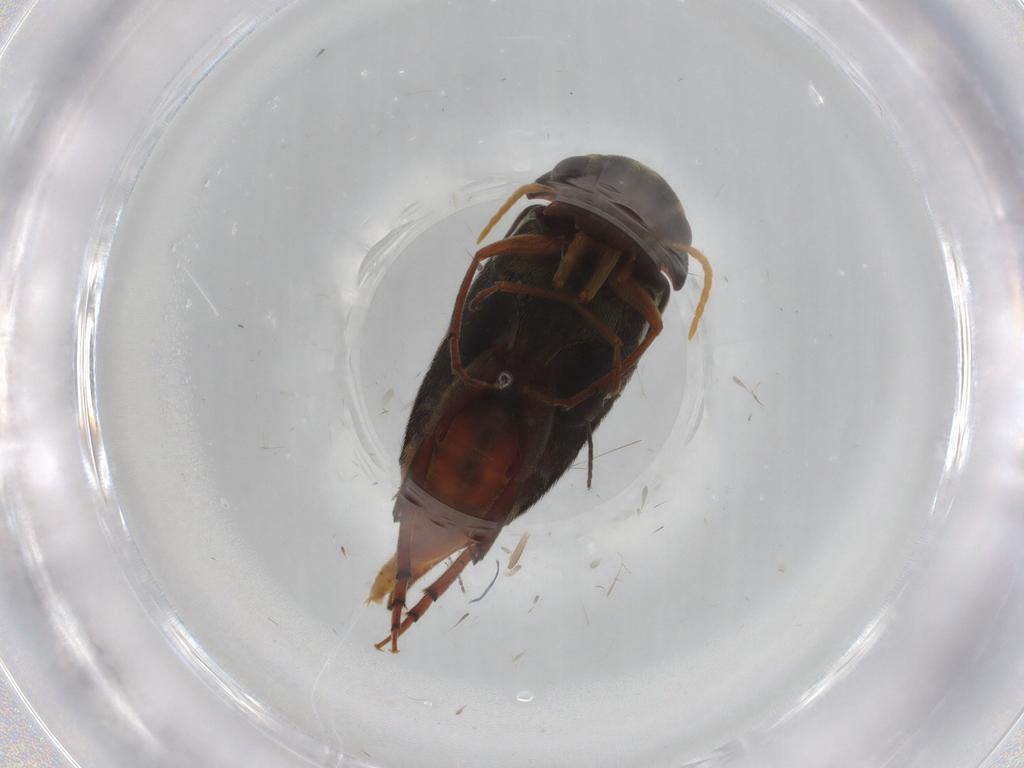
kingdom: Animalia
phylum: Arthropoda
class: Insecta
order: Coleoptera
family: Mordellidae
